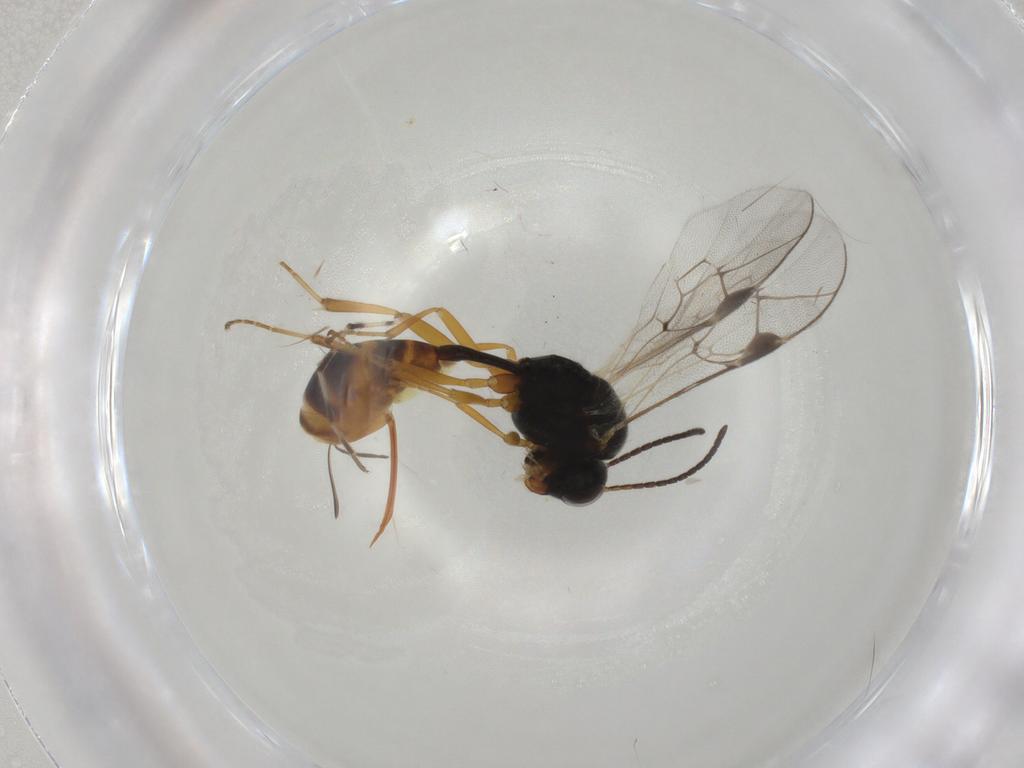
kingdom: Animalia
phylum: Arthropoda
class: Insecta
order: Hymenoptera
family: Ichneumonidae
